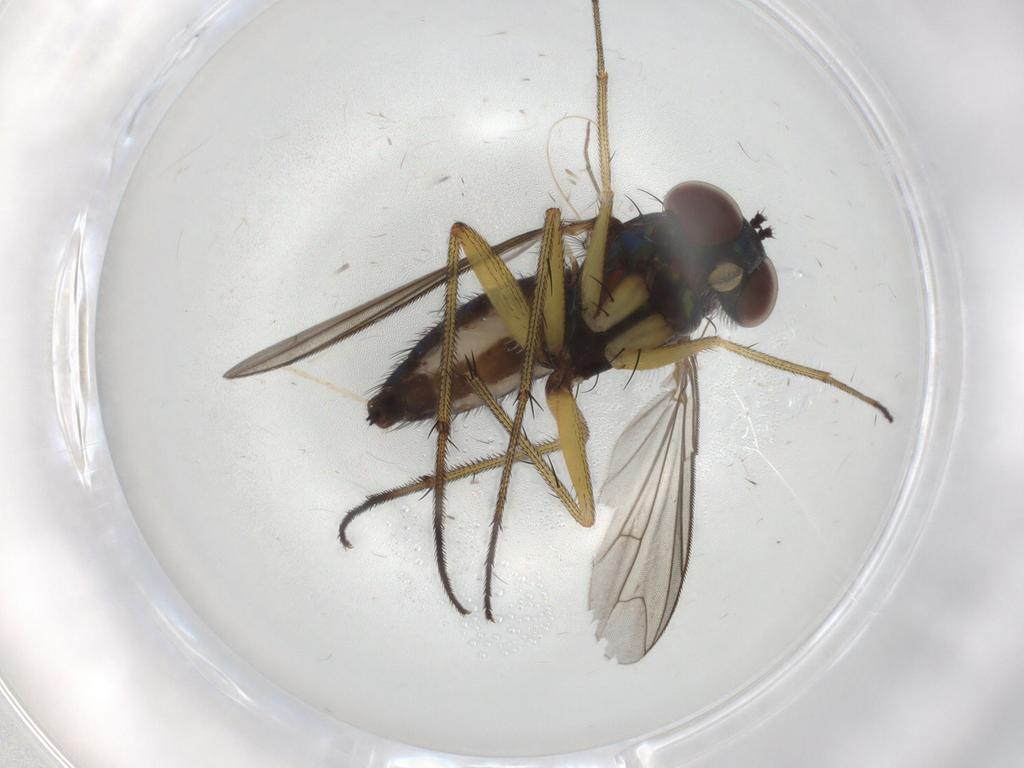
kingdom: Animalia
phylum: Arthropoda
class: Insecta
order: Diptera
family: Dolichopodidae
